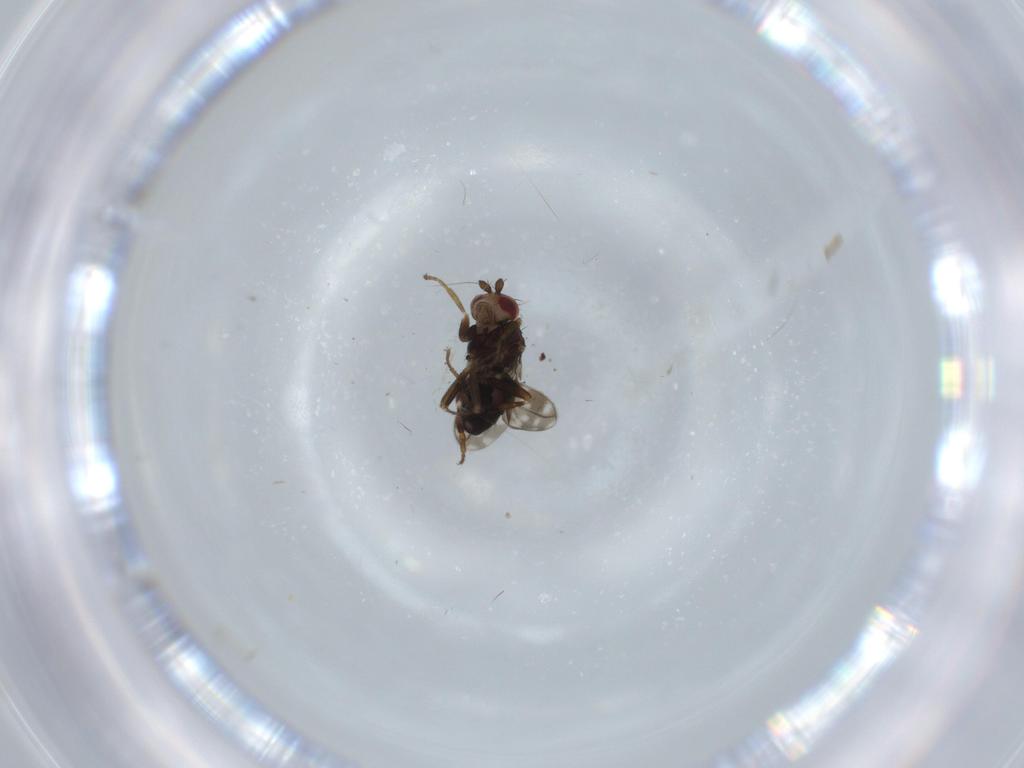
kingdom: Animalia
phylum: Arthropoda
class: Insecta
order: Diptera
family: Sphaeroceridae
